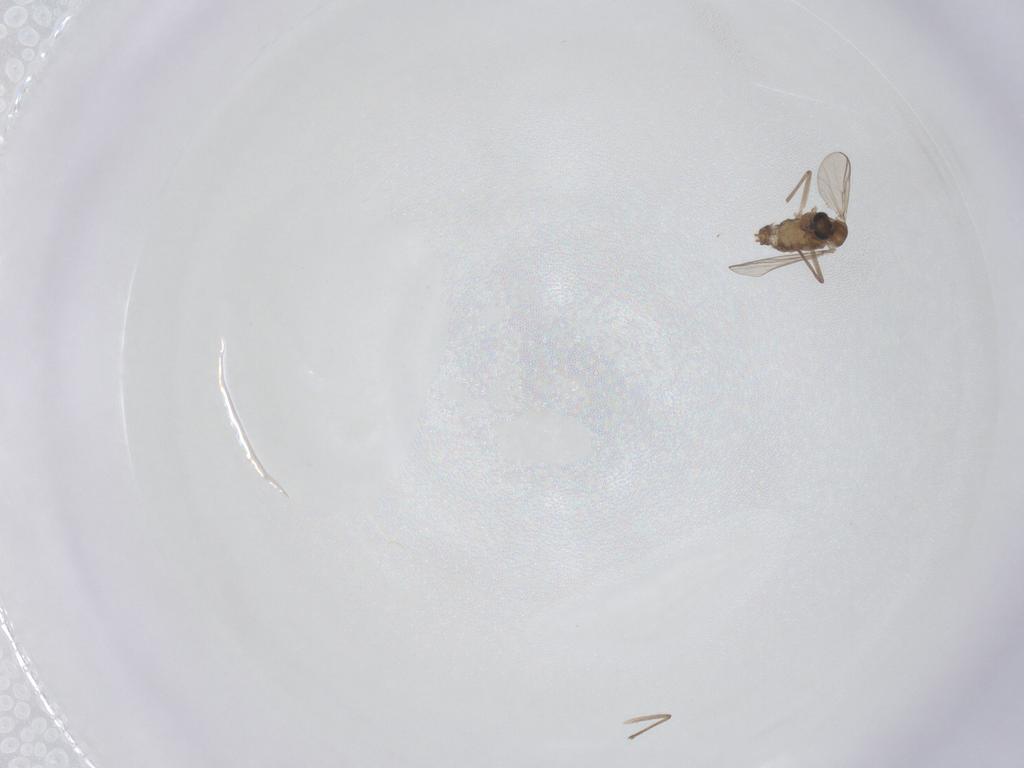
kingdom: Animalia
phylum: Arthropoda
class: Insecta
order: Diptera
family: Chironomidae
